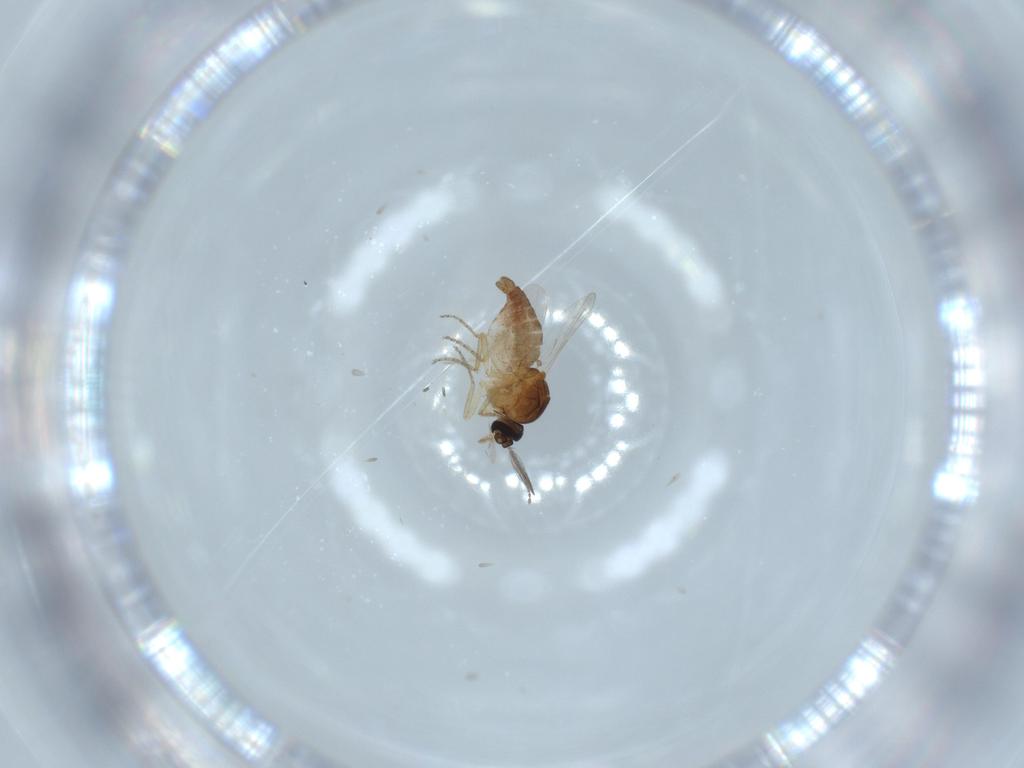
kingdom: Animalia
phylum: Arthropoda
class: Insecta
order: Diptera
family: Ceratopogonidae
